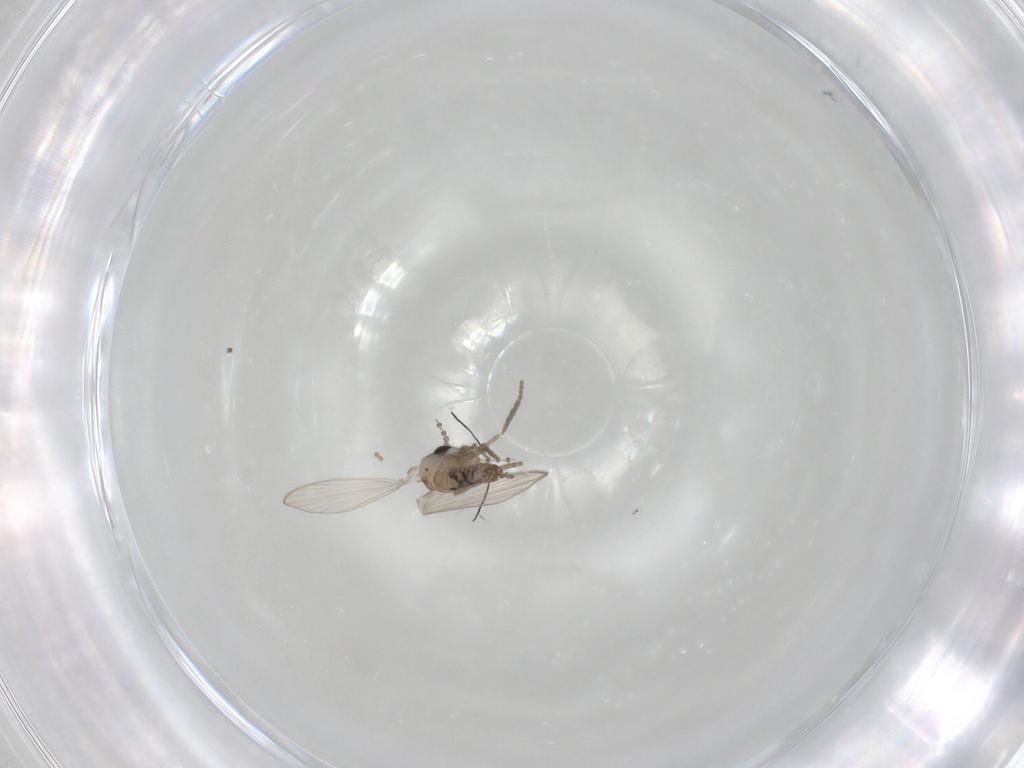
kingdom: Animalia
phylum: Arthropoda
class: Insecta
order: Diptera
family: Psychodidae
